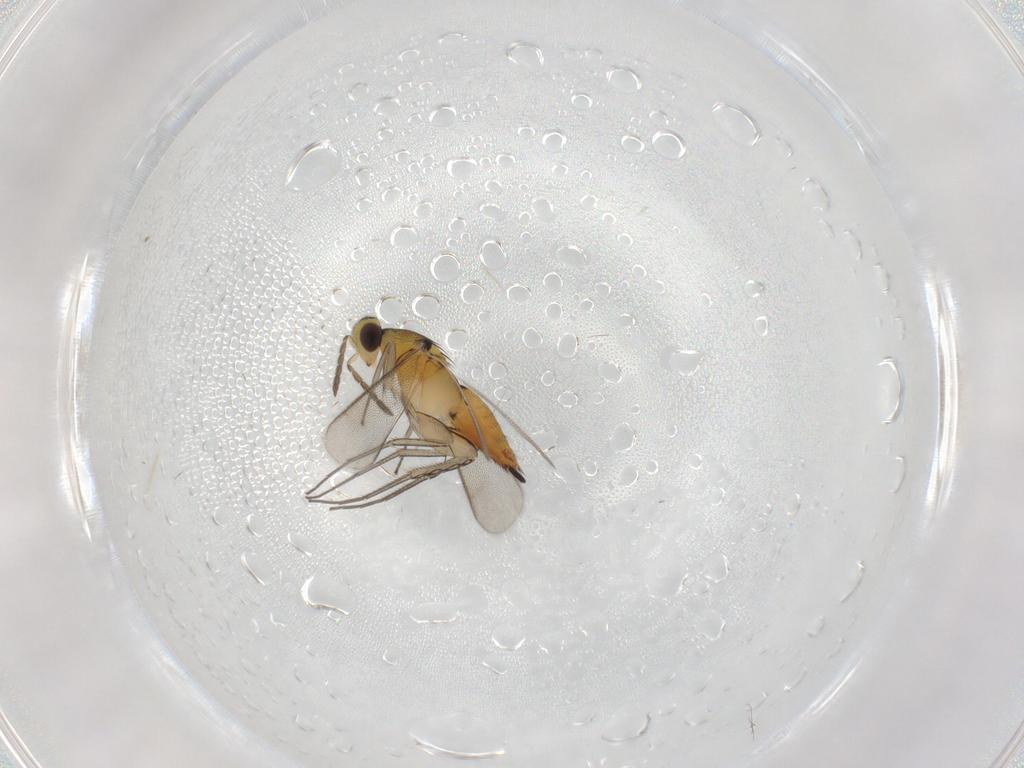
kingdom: Animalia
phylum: Arthropoda
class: Insecta
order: Hymenoptera
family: Eulophidae
